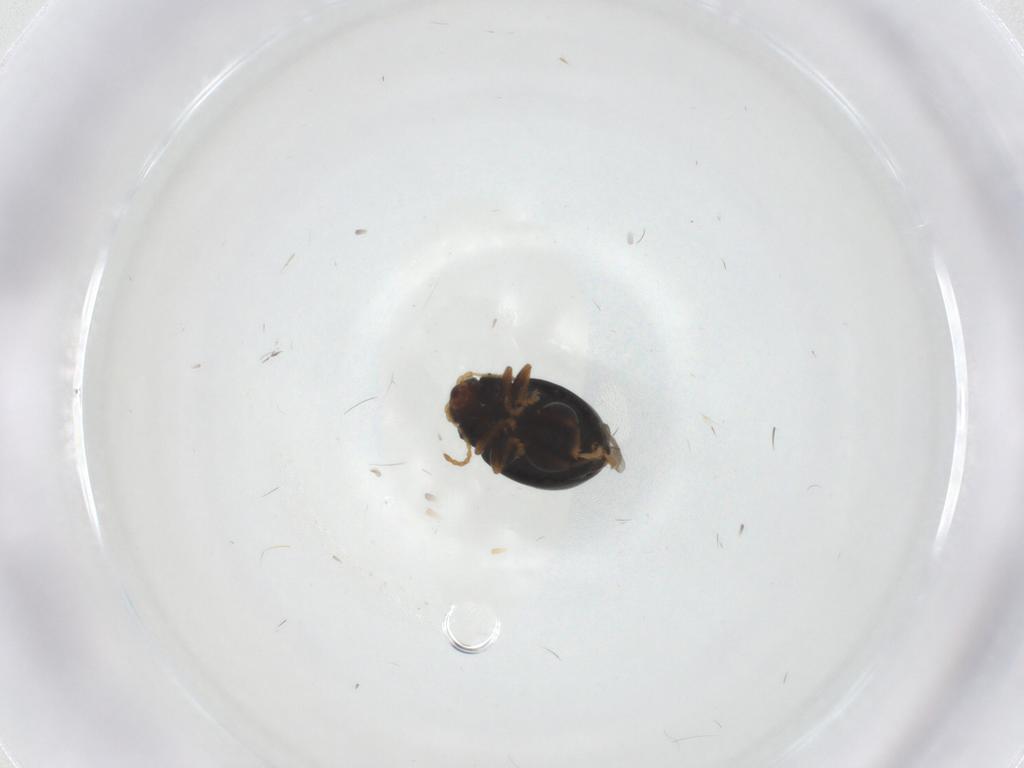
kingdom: Animalia
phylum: Arthropoda
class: Insecta
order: Coleoptera
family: Chrysomelidae
